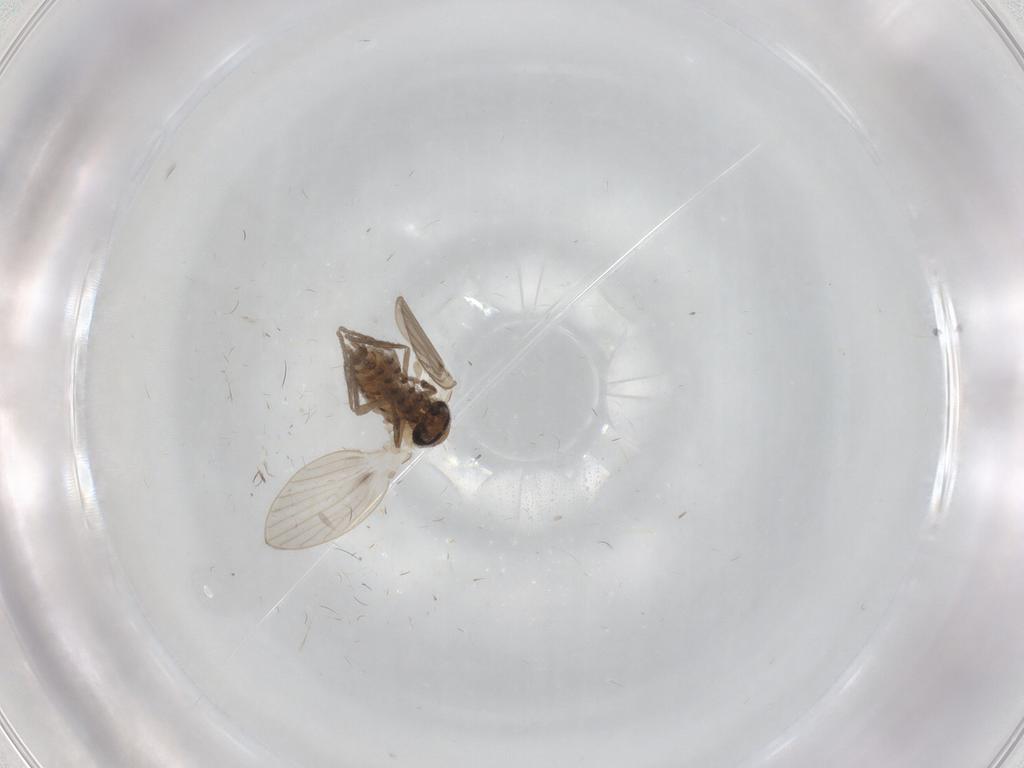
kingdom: Animalia
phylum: Arthropoda
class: Insecta
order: Diptera
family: Psychodidae
